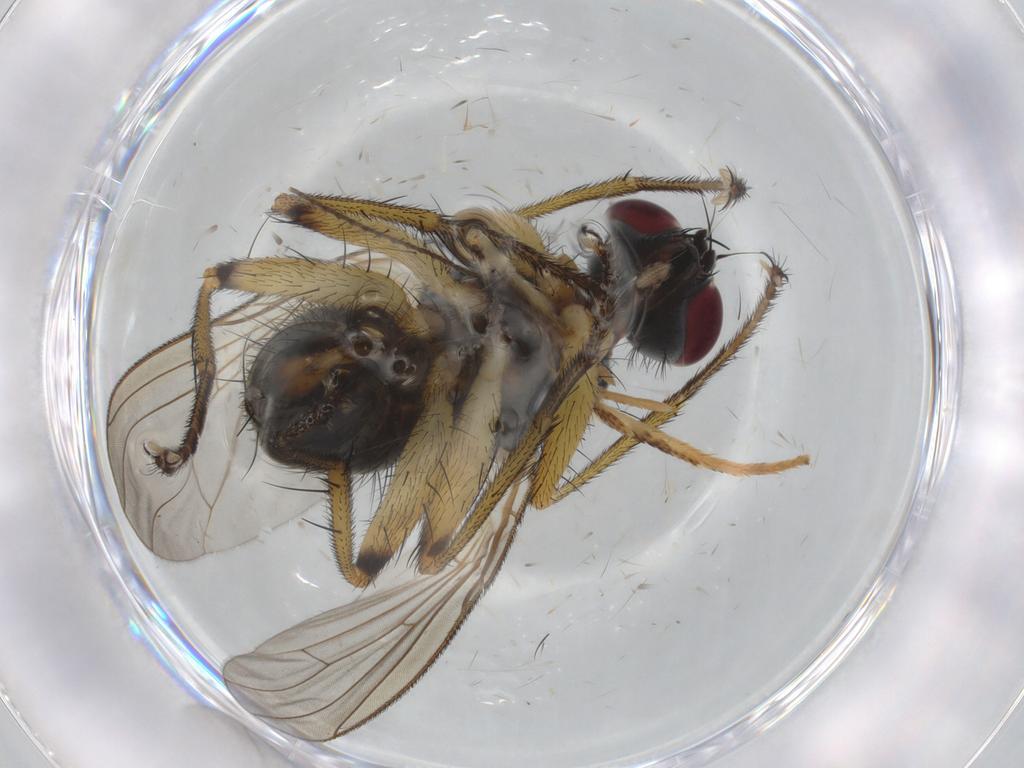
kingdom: Animalia
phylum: Arthropoda
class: Insecta
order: Diptera
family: Muscidae
